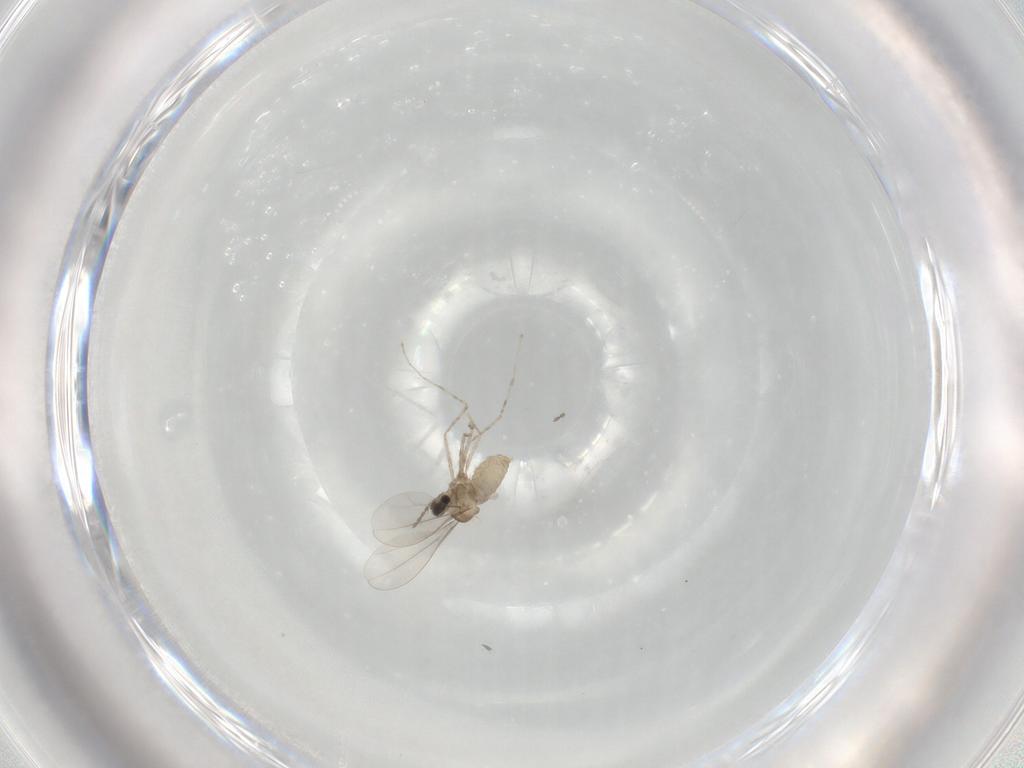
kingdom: Animalia
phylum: Arthropoda
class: Insecta
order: Diptera
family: Cecidomyiidae
